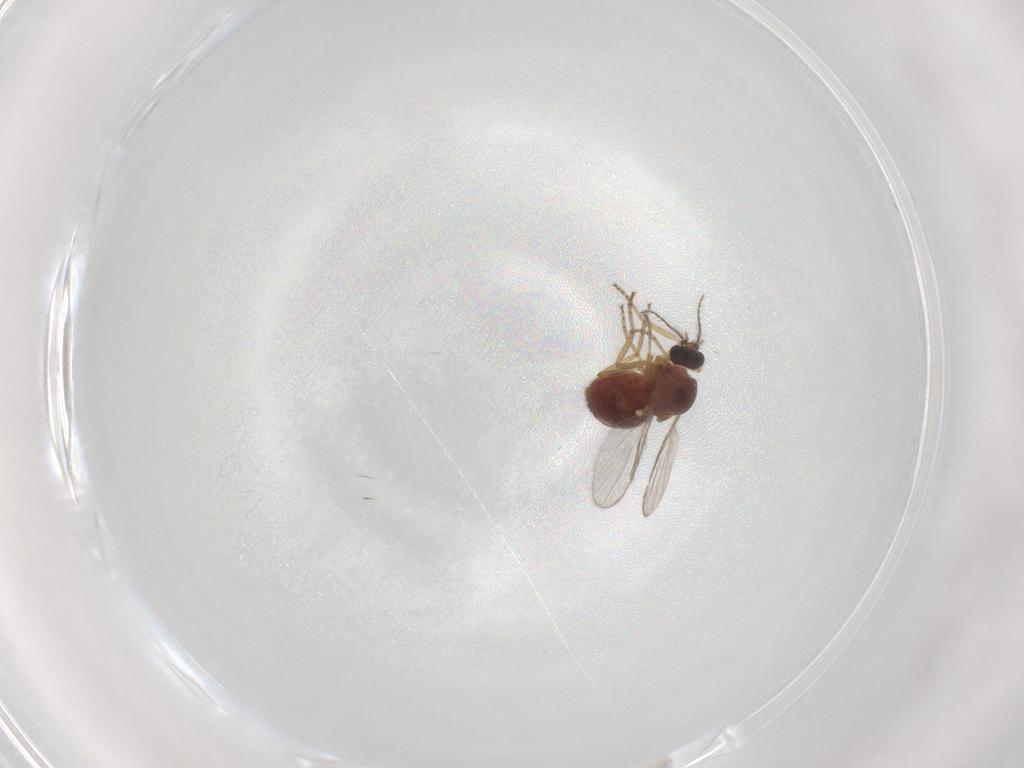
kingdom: Animalia
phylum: Arthropoda
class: Insecta
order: Diptera
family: Ceratopogonidae
